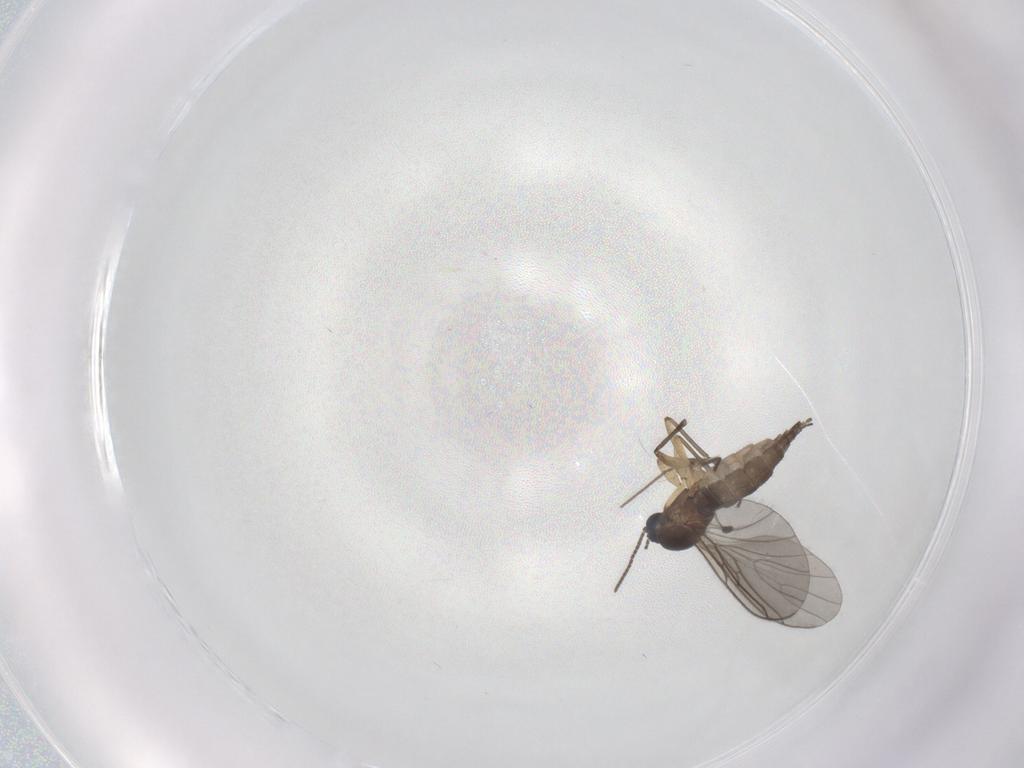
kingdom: Animalia
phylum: Arthropoda
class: Insecta
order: Diptera
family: Sciaridae
